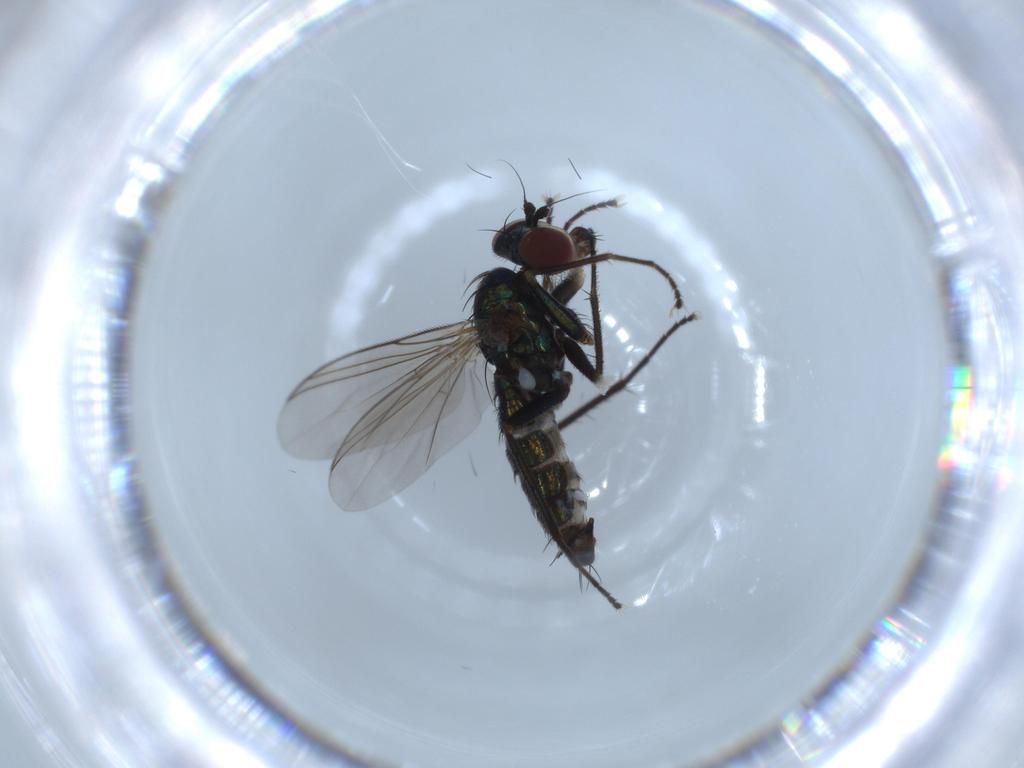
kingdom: Animalia
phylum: Arthropoda
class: Insecta
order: Diptera
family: Dolichopodidae
